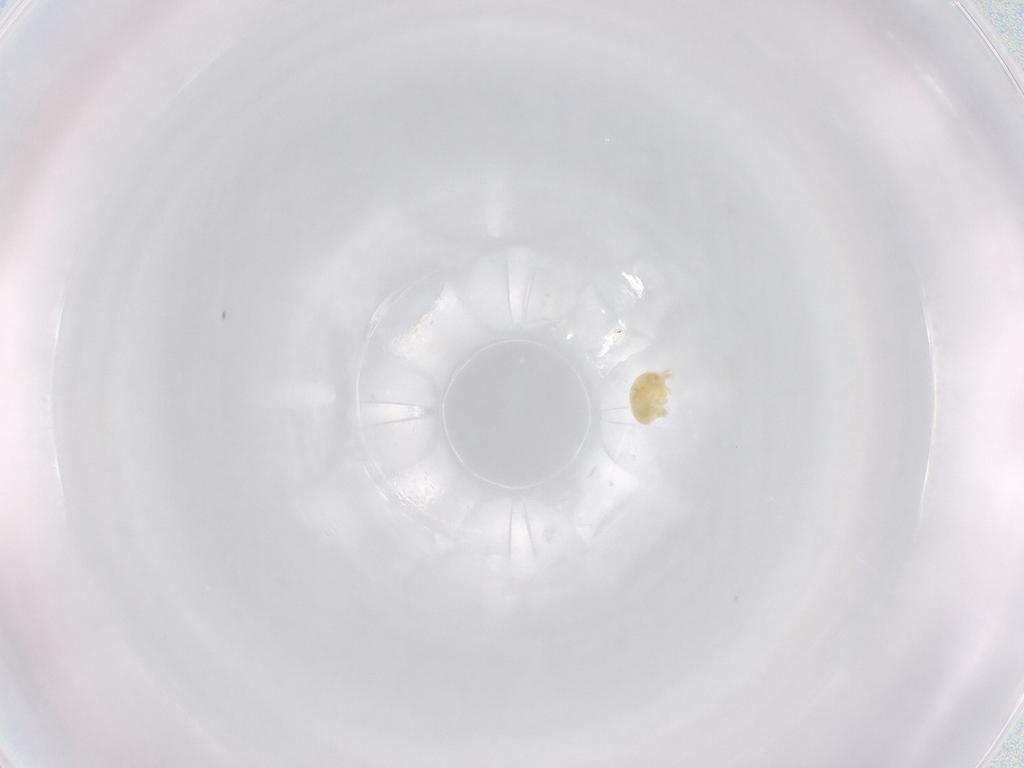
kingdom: Animalia
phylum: Arthropoda
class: Arachnida
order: Trombidiformes
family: Eupodidae
